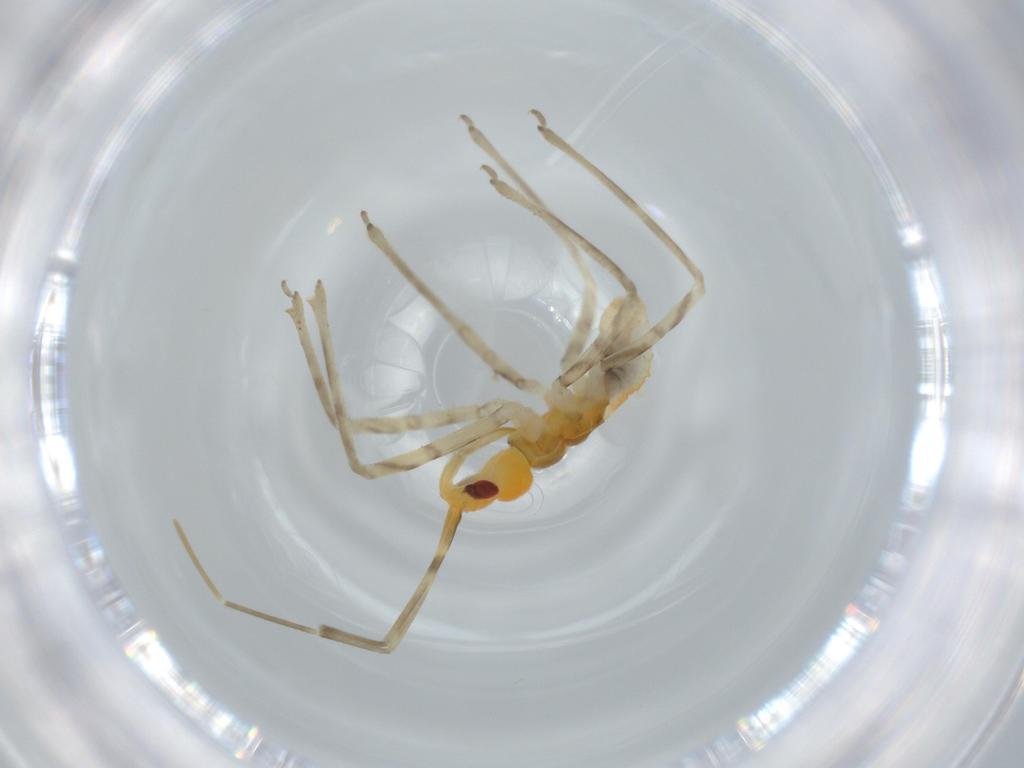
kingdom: Animalia
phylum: Arthropoda
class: Insecta
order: Hemiptera
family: Reduviidae
